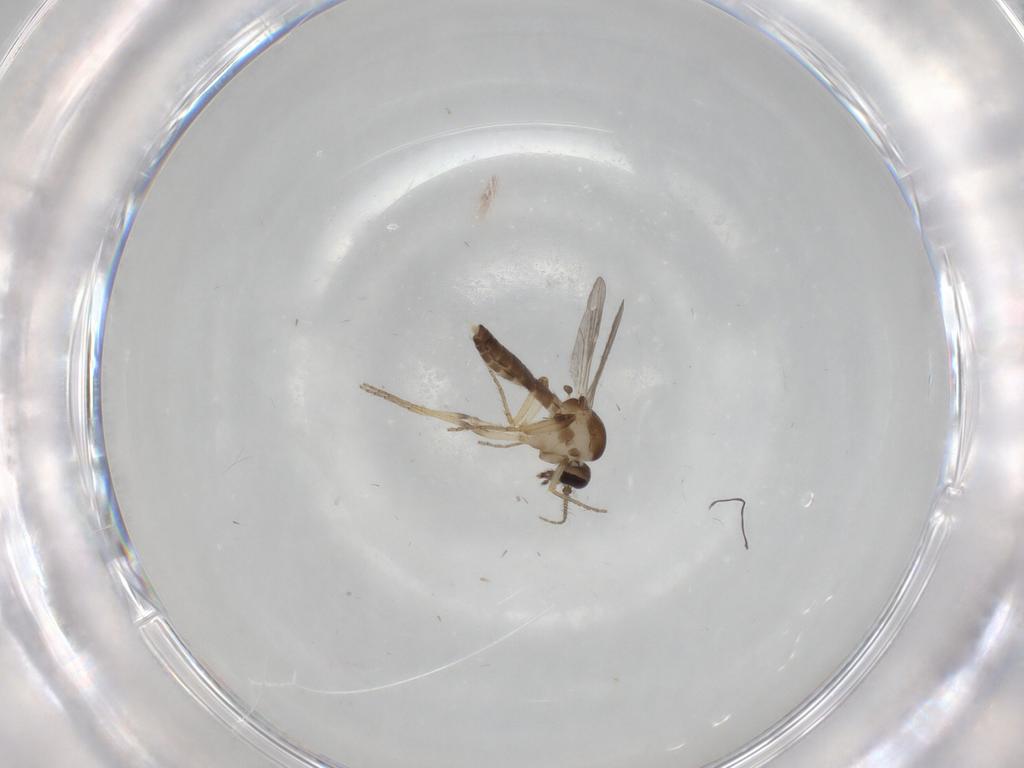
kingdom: Animalia
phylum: Arthropoda
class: Insecta
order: Diptera
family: Ceratopogonidae
